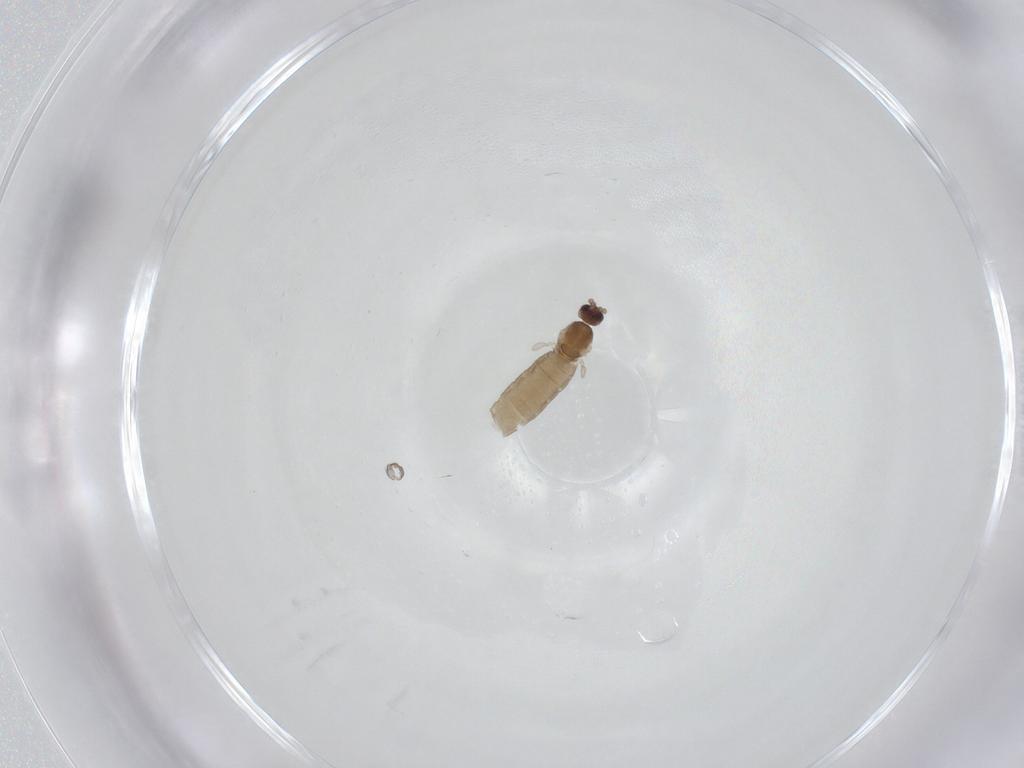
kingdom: Animalia
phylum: Arthropoda
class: Insecta
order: Diptera
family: Cecidomyiidae
